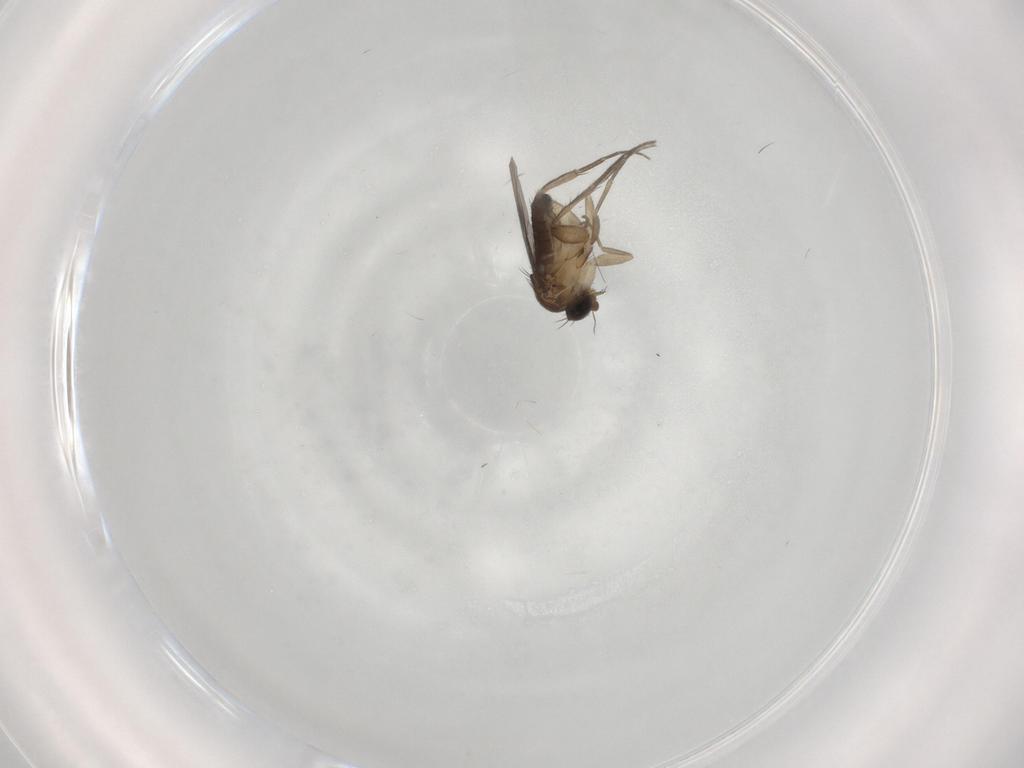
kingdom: Animalia
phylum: Arthropoda
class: Insecta
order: Diptera
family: Phoridae
